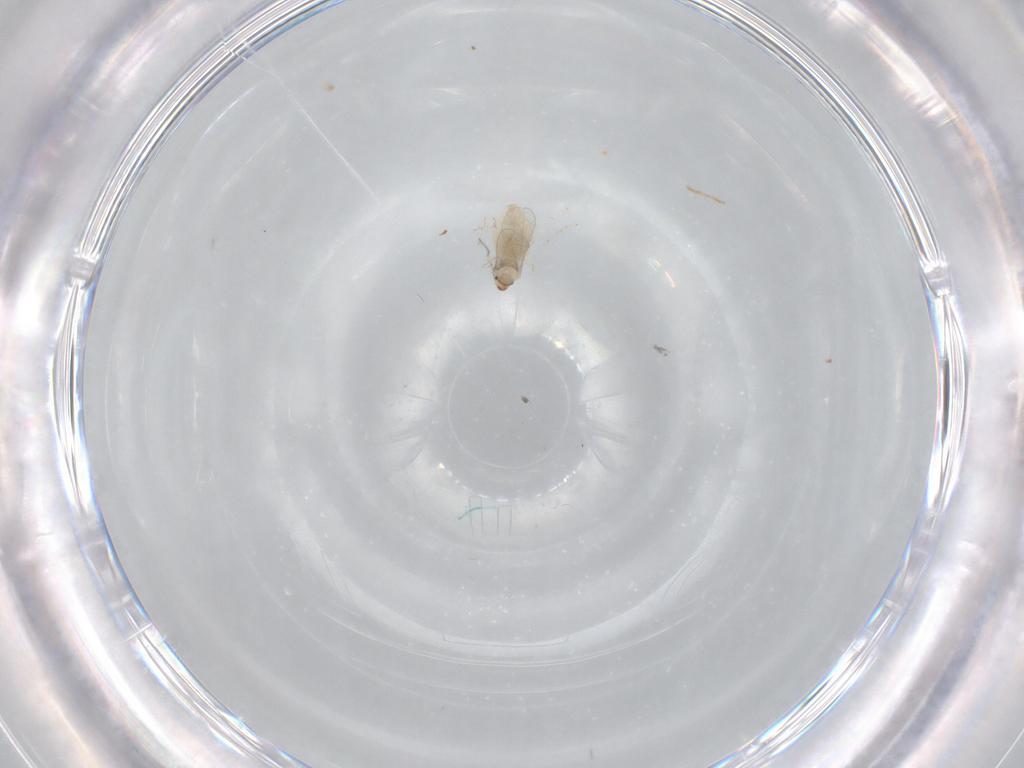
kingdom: Animalia
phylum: Arthropoda
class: Insecta
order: Diptera
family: Cecidomyiidae
